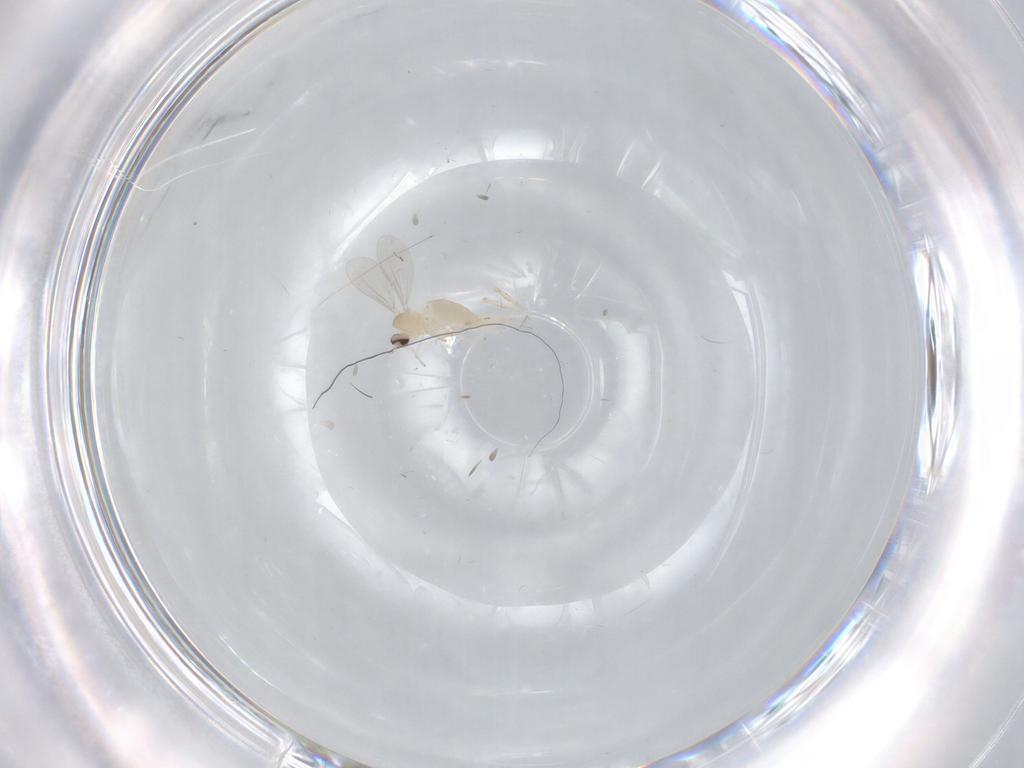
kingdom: Animalia
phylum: Arthropoda
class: Insecta
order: Diptera
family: Cecidomyiidae
